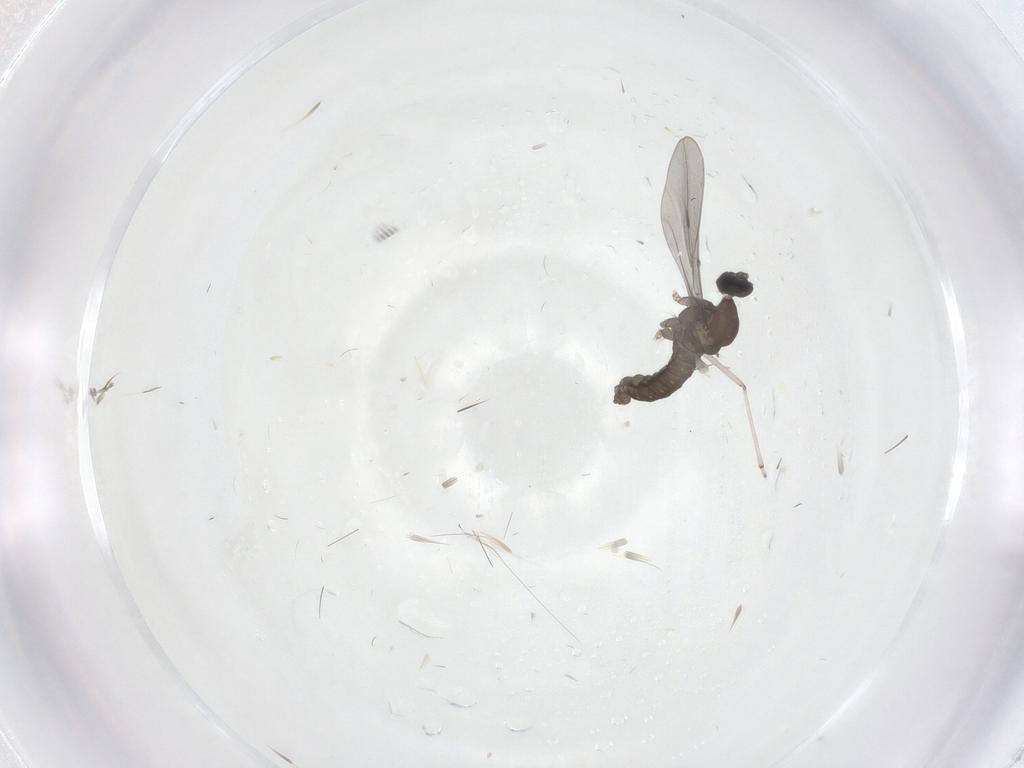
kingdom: Animalia
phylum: Arthropoda
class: Insecta
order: Diptera
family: Cecidomyiidae
